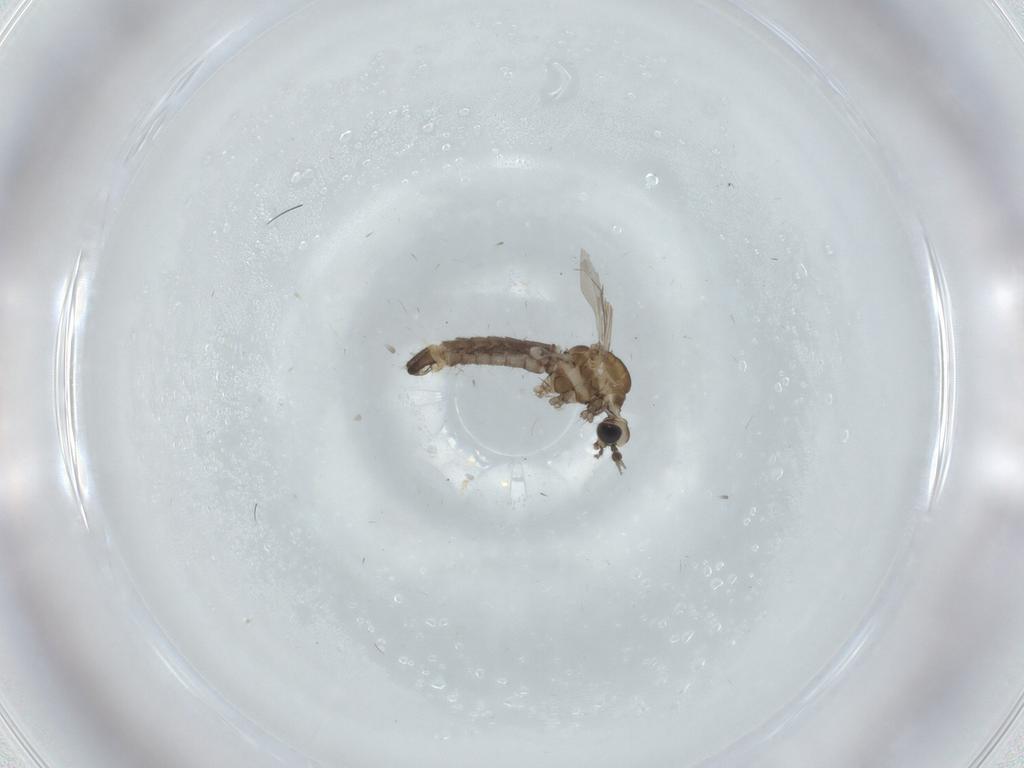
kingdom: Animalia
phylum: Arthropoda
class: Insecta
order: Diptera
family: Limoniidae
